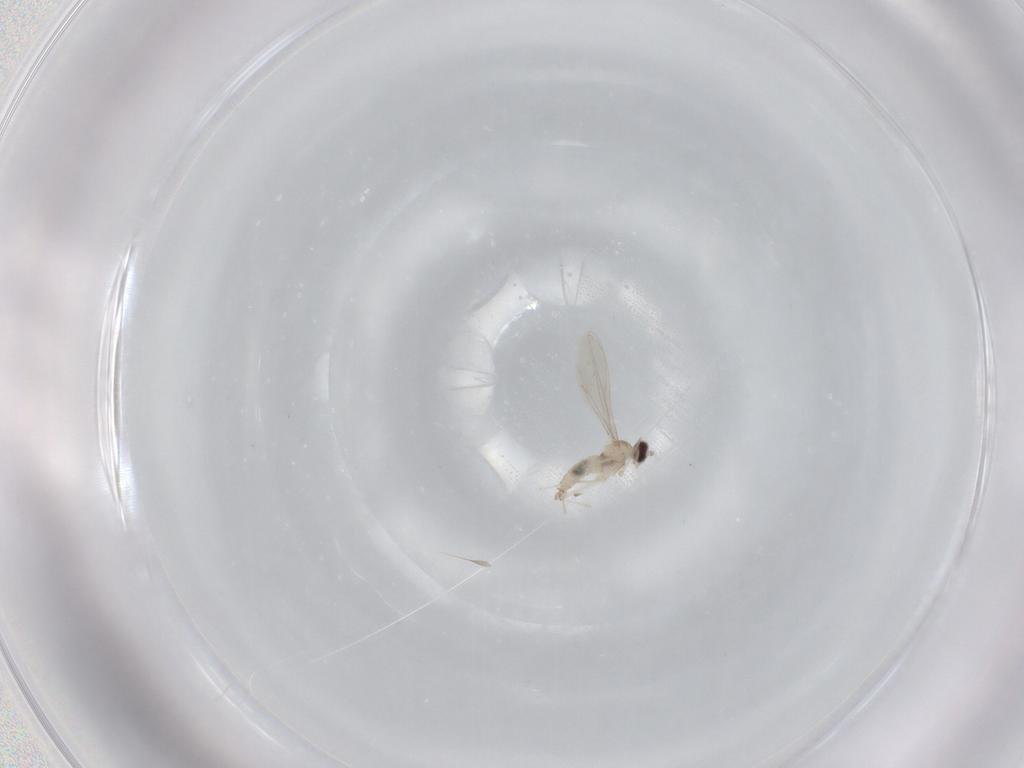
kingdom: Animalia
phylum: Arthropoda
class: Insecta
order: Diptera
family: Cecidomyiidae
